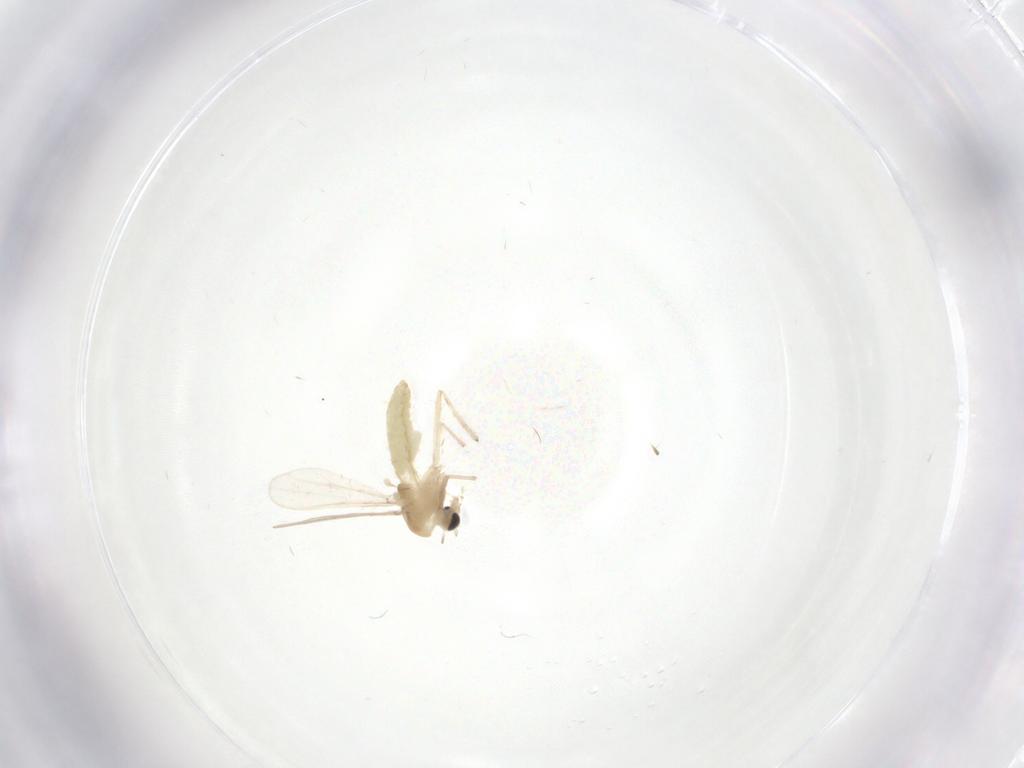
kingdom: Animalia
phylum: Arthropoda
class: Insecta
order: Diptera
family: Chironomidae
